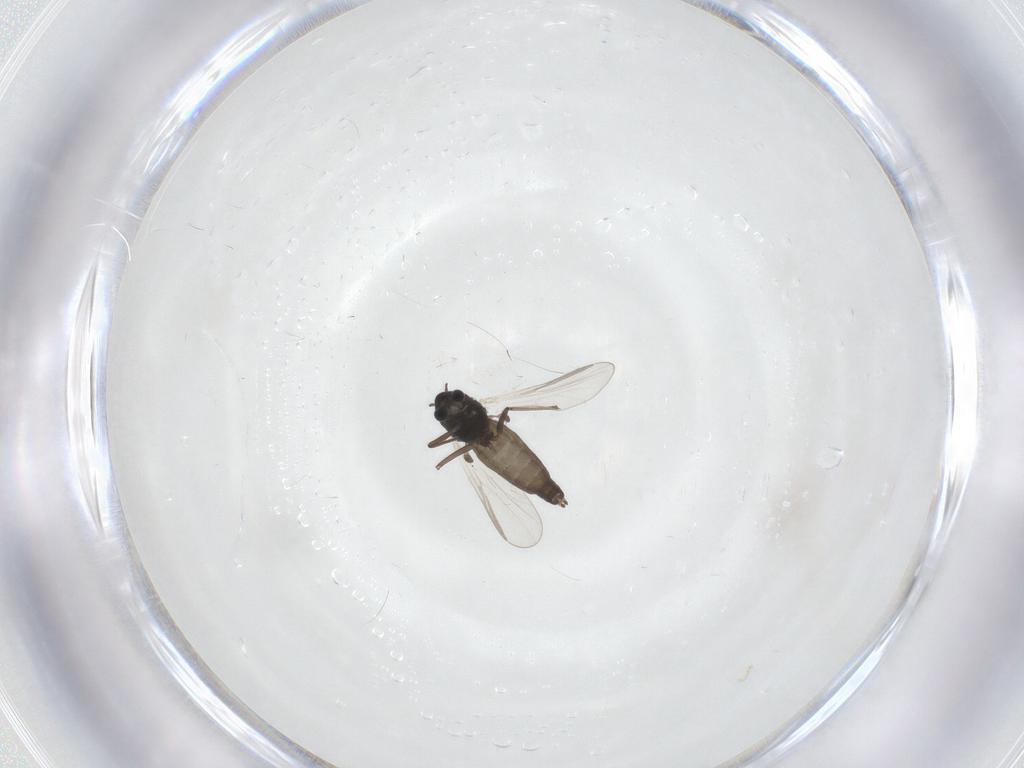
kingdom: Animalia
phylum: Arthropoda
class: Insecta
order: Diptera
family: Chironomidae
